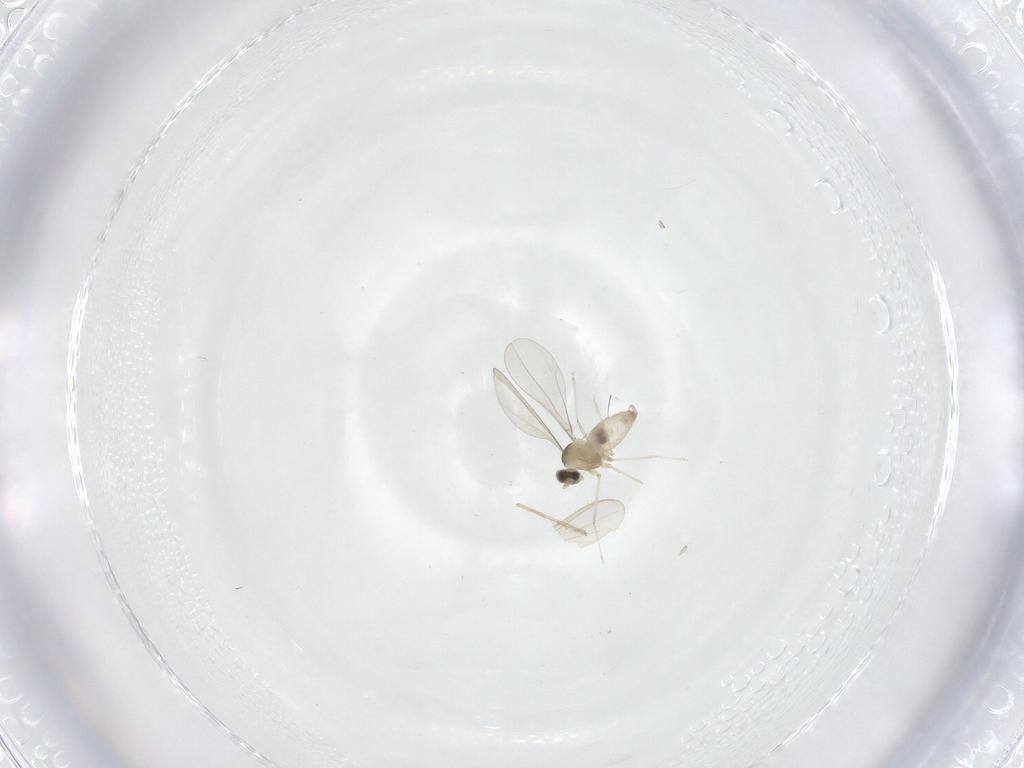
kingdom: Animalia
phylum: Arthropoda
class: Insecta
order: Diptera
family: Cecidomyiidae
